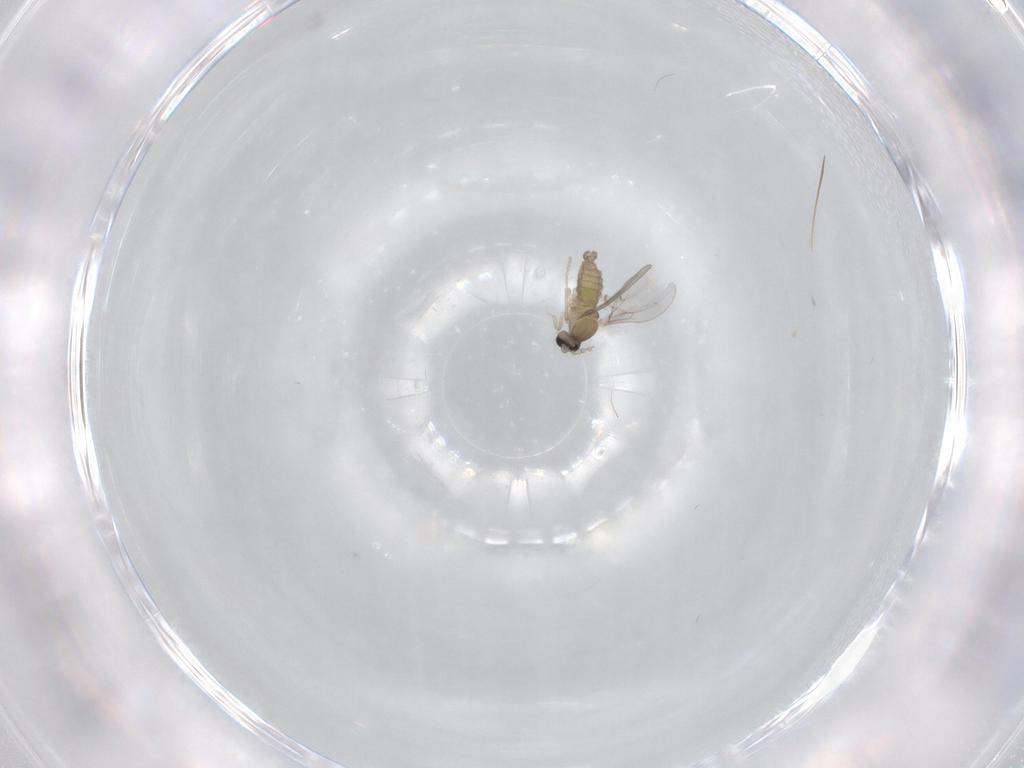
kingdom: Animalia
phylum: Arthropoda
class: Insecta
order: Diptera
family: Cecidomyiidae
